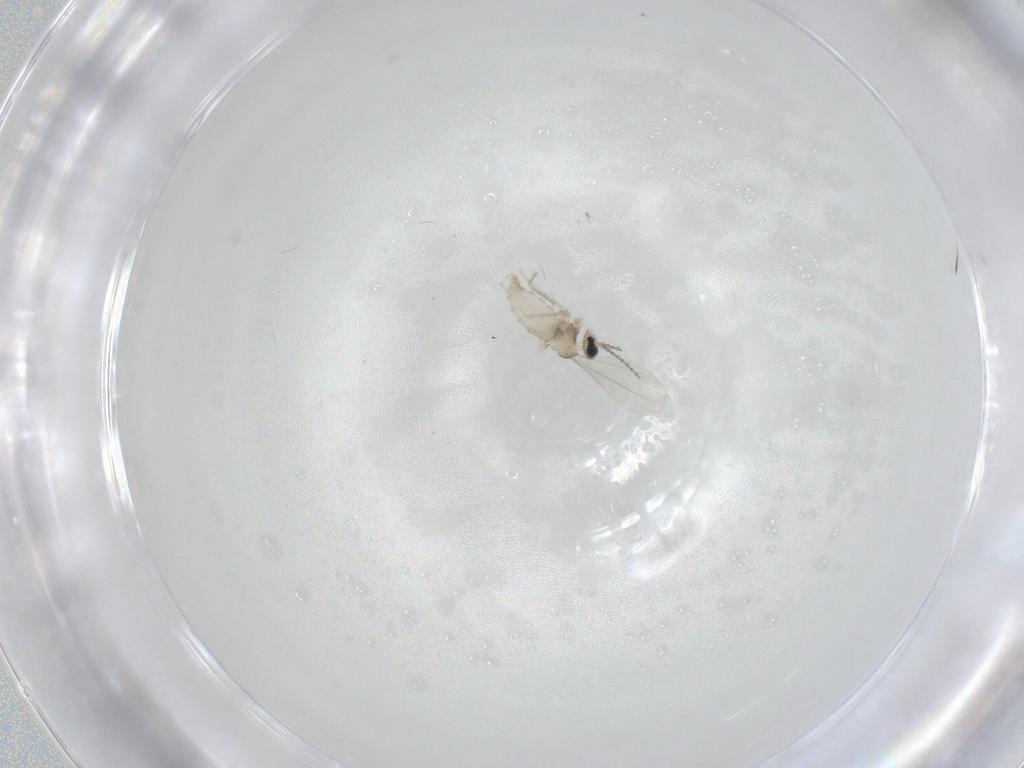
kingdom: Animalia
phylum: Arthropoda
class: Insecta
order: Diptera
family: Cecidomyiidae
